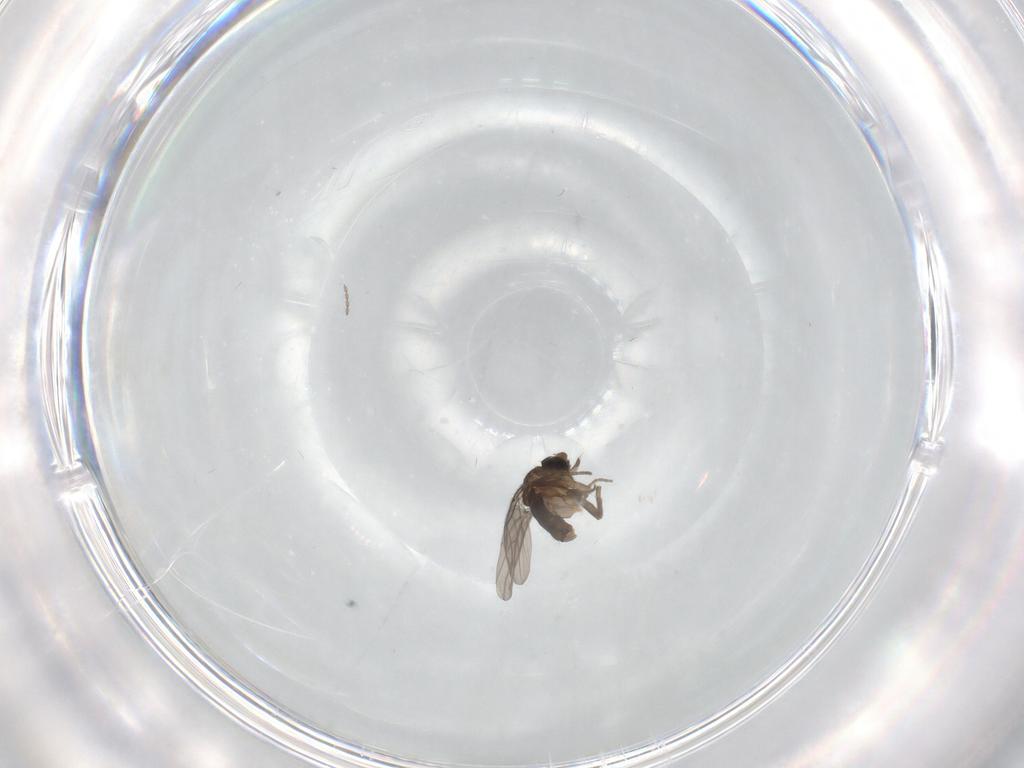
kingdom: Animalia
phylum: Arthropoda
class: Insecta
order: Diptera
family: Phoridae
